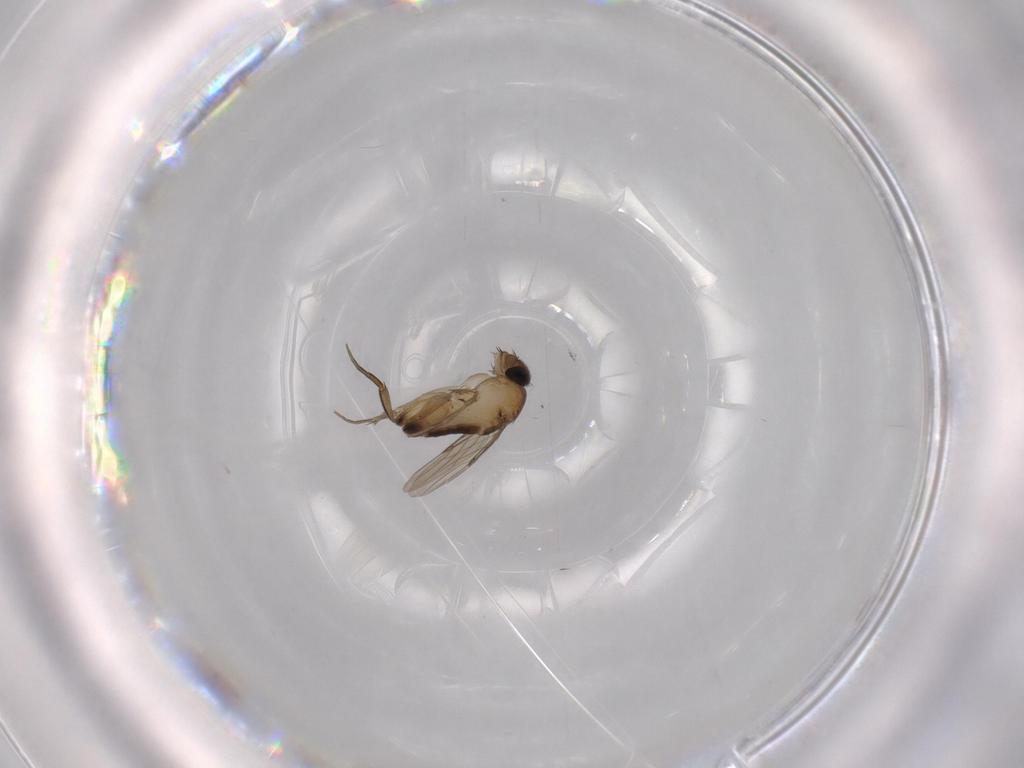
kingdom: Animalia
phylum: Arthropoda
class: Insecta
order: Diptera
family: Phoridae
